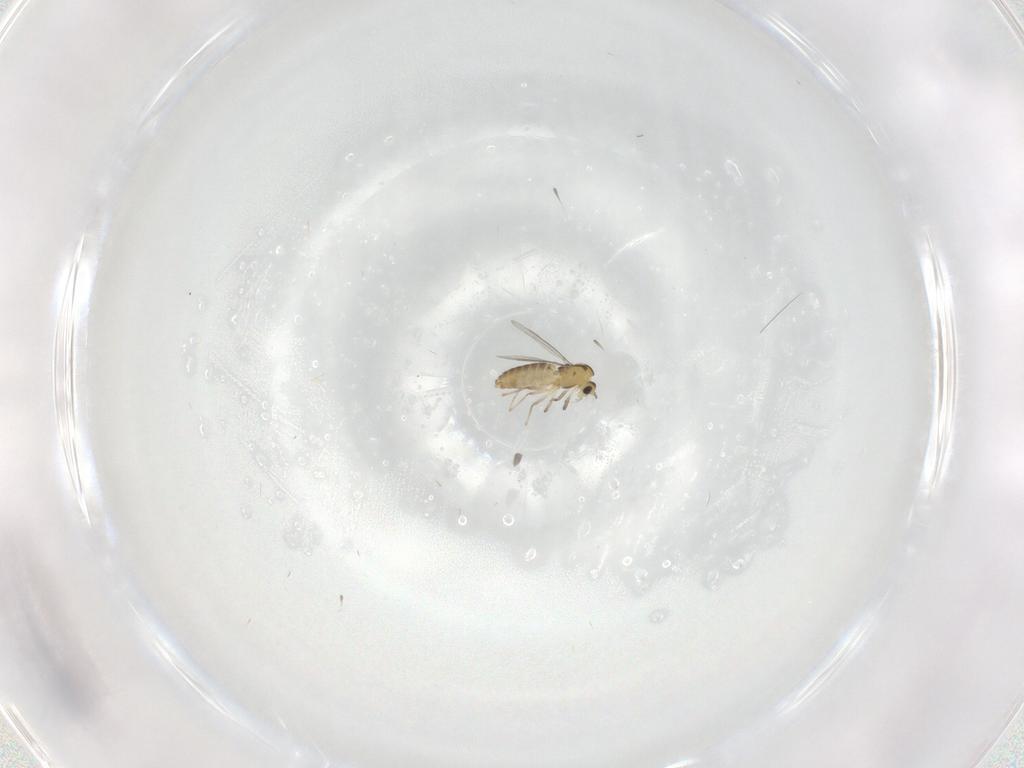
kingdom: Animalia
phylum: Arthropoda
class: Insecta
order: Diptera
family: Chironomidae
